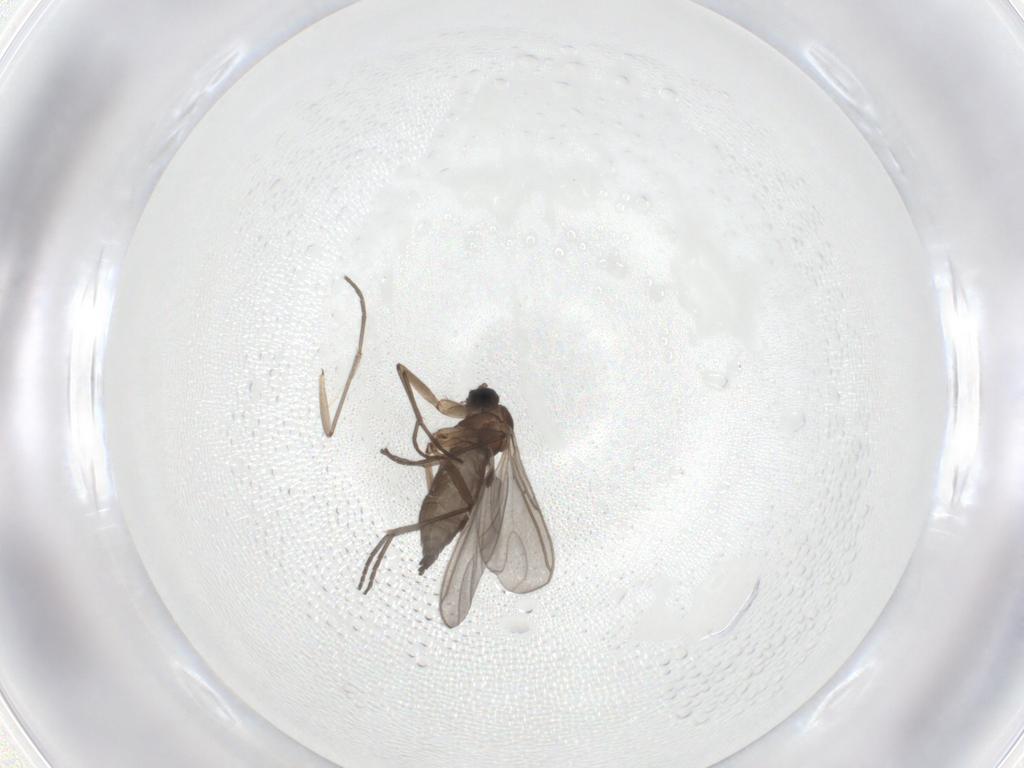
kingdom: Animalia
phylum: Arthropoda
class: Insecta
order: Diptera
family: Sciaridae
